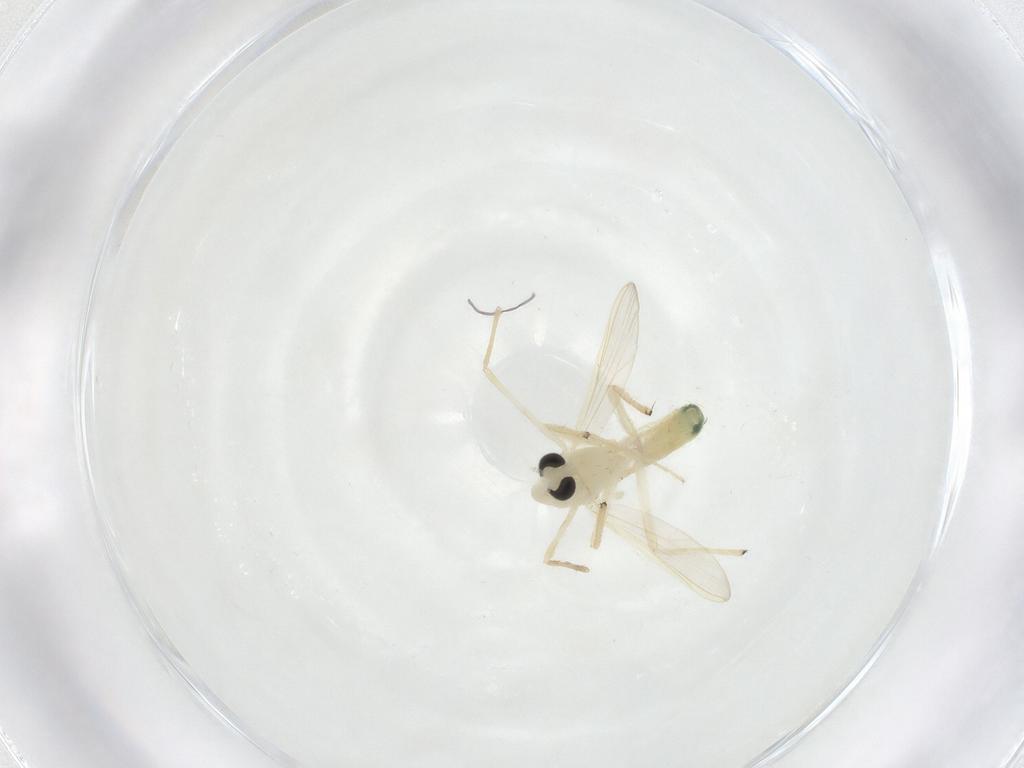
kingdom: Animalia
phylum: Arthropoda
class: Insecta
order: Diptera
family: Chironomidae
